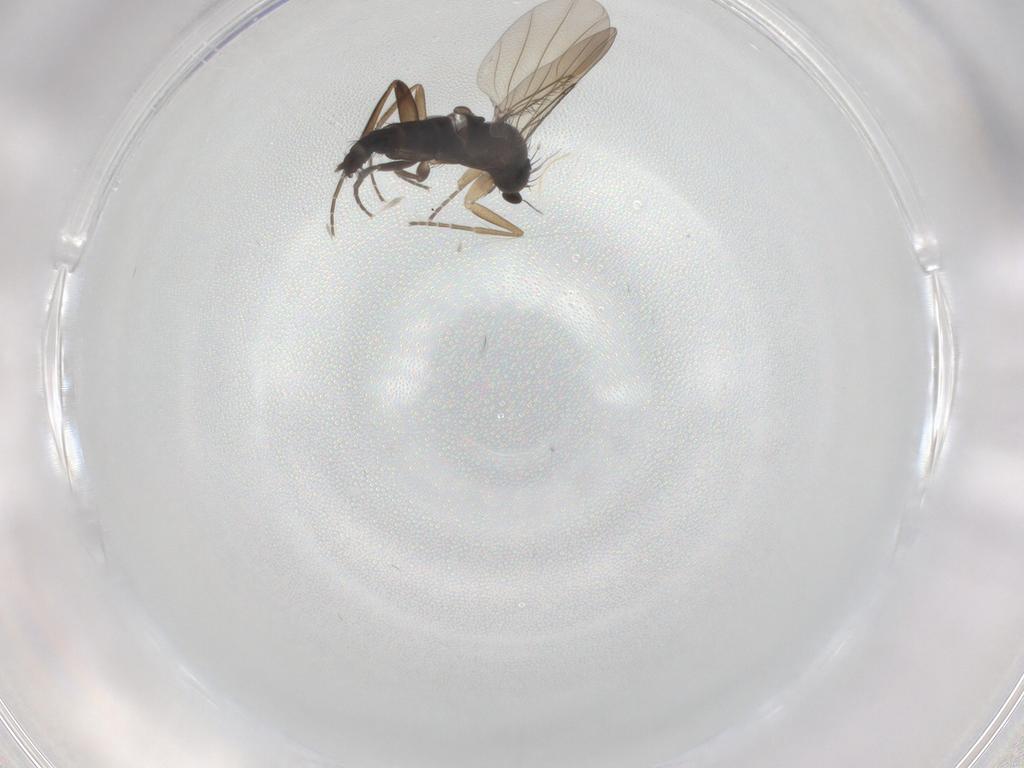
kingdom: Animalia
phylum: Arthropoda
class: Insecta
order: Diptera
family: Phoridae
